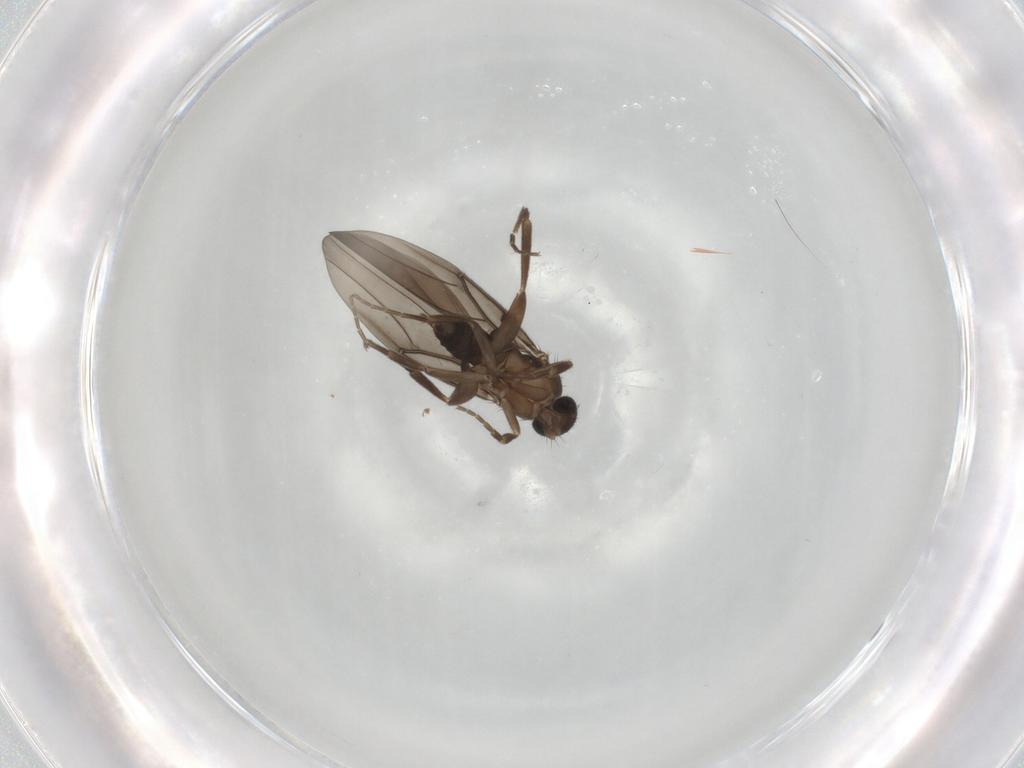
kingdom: Animalia
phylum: Arthropoda
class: Insecta
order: Diptera
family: Phoridae
